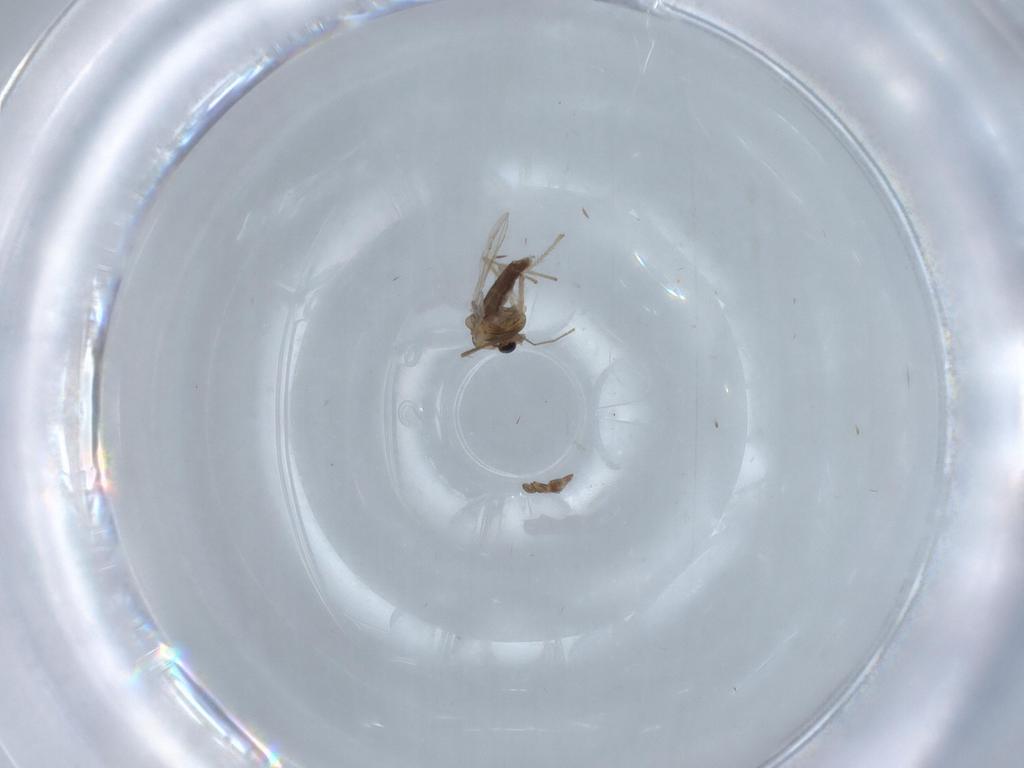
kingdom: Animalia
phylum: Arthropoda
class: Insecta
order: Diptera
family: Chironomidae
